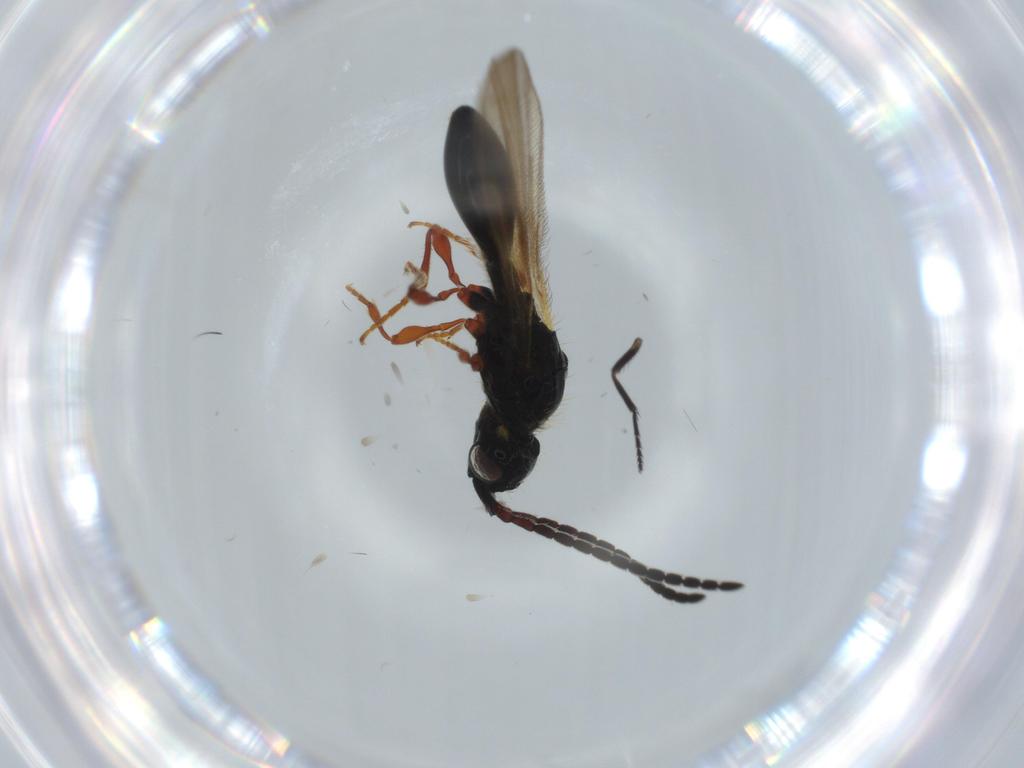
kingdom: Animalia
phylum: Arthropoda
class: Insecta
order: Hymenoptera
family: Diapriidae
